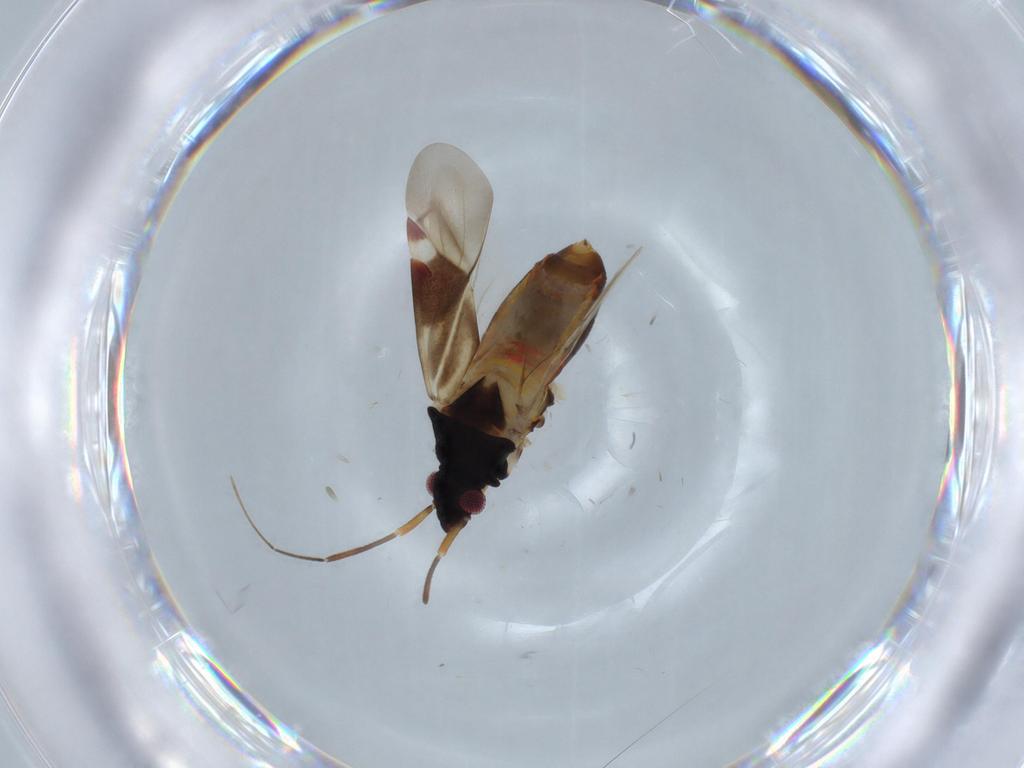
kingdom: Animalia
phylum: Arthropoda
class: Insecta
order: Hemiptera
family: Miridae
